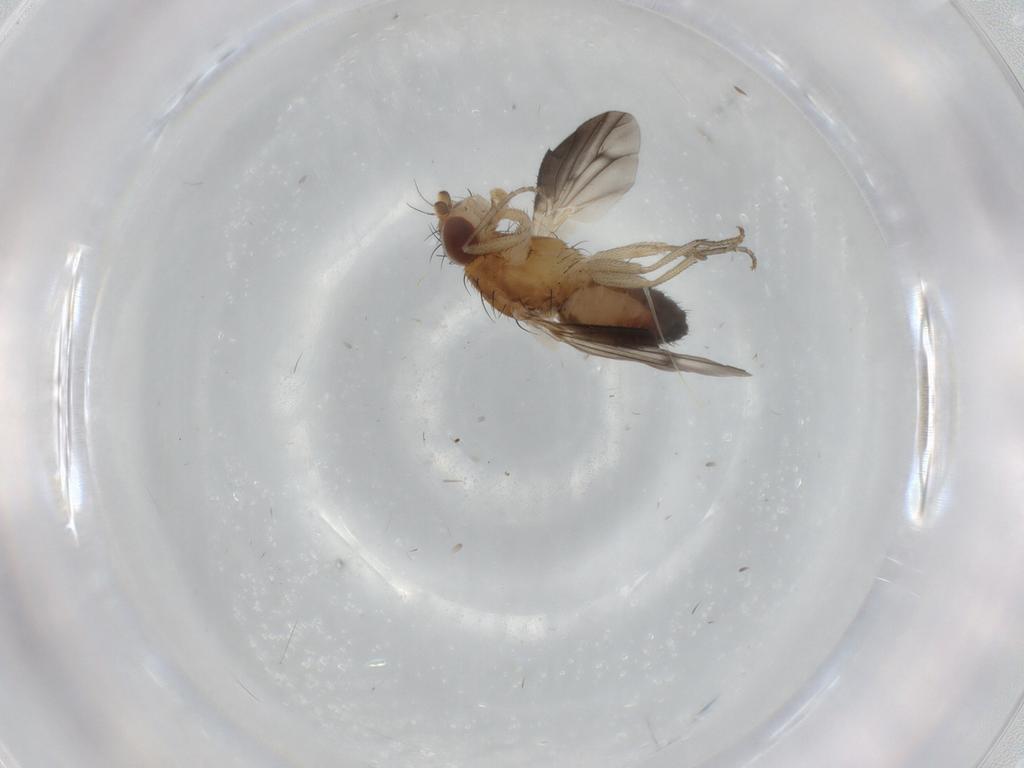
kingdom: Animalia
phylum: Arthropoda
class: Insecta
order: Diptera
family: Heleomyzidae
